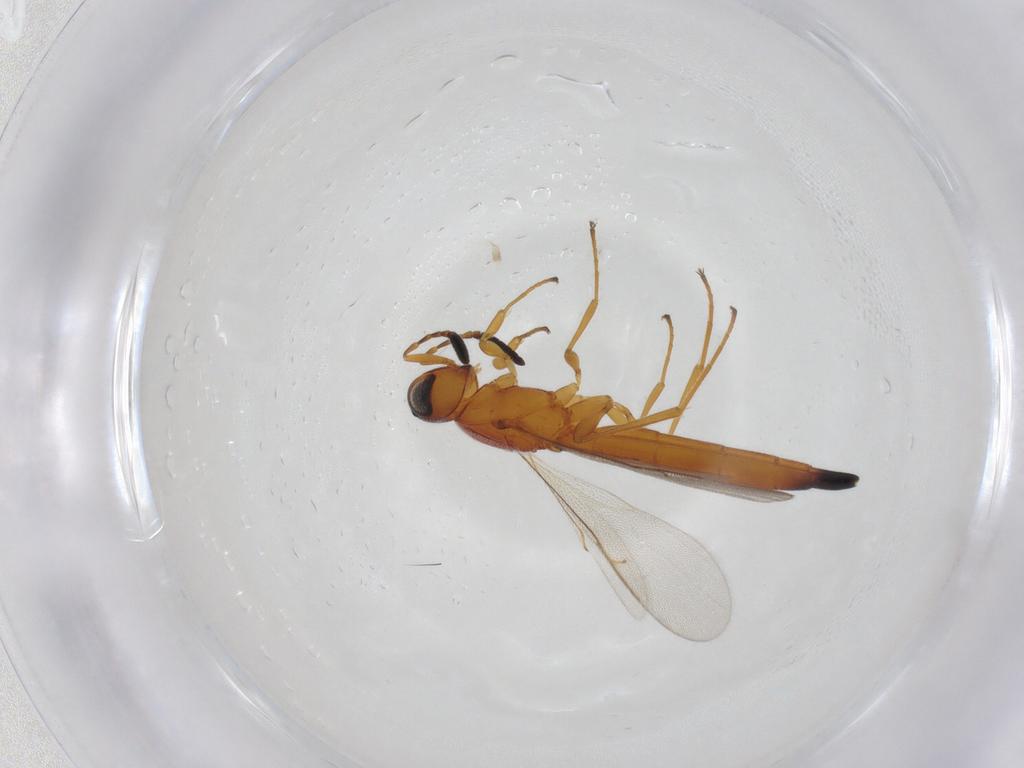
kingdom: Animalia
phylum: Arthropoda
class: Insecta
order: Hymenoptera
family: Scelionidae
